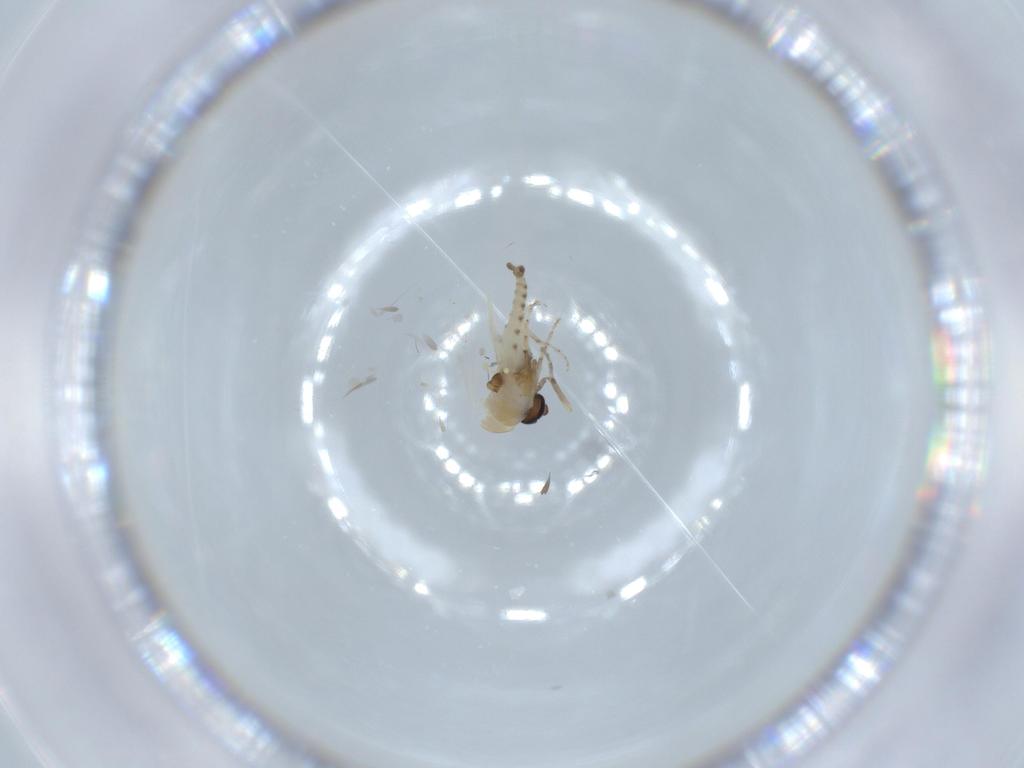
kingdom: Animalia
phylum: Arthropoda
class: Insecta
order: Diptera
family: Ceratopogonidae
